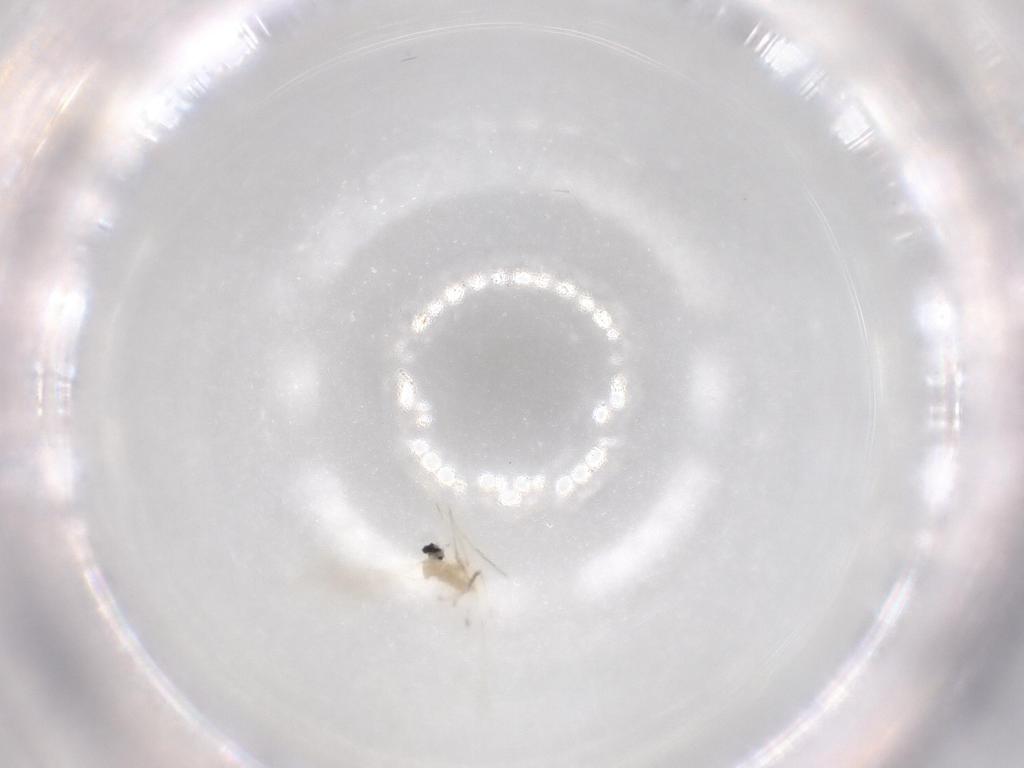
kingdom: Animalia
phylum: Arthropoda
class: Insecta
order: Diptera
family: Cecidomyiidae
